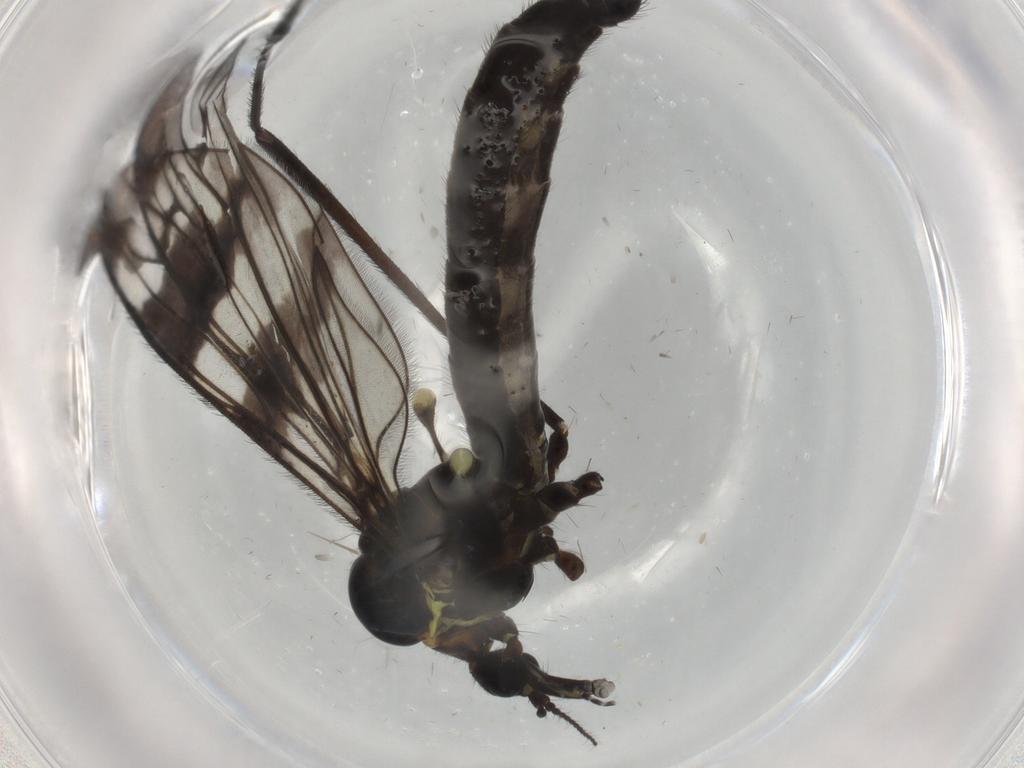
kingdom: Animalia
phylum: Arthropoda
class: Insecta
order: Diptera
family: Limoniidae
